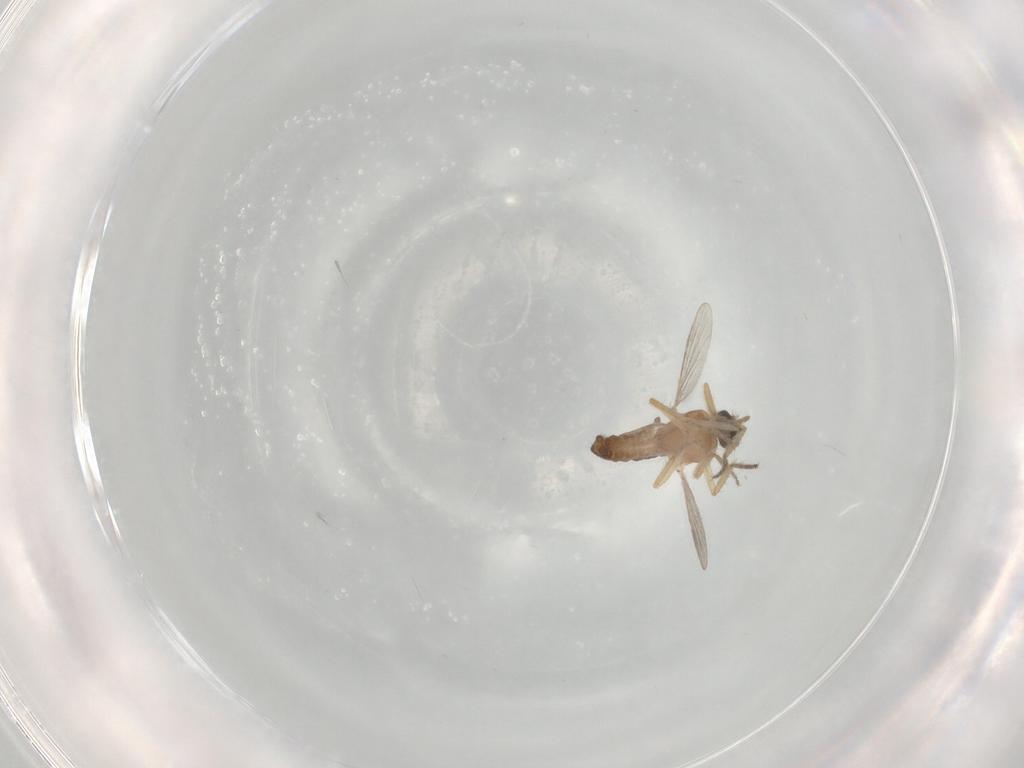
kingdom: Animalia
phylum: Arthropoda
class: Insecta
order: Diptera
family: Ceratopogonidae
